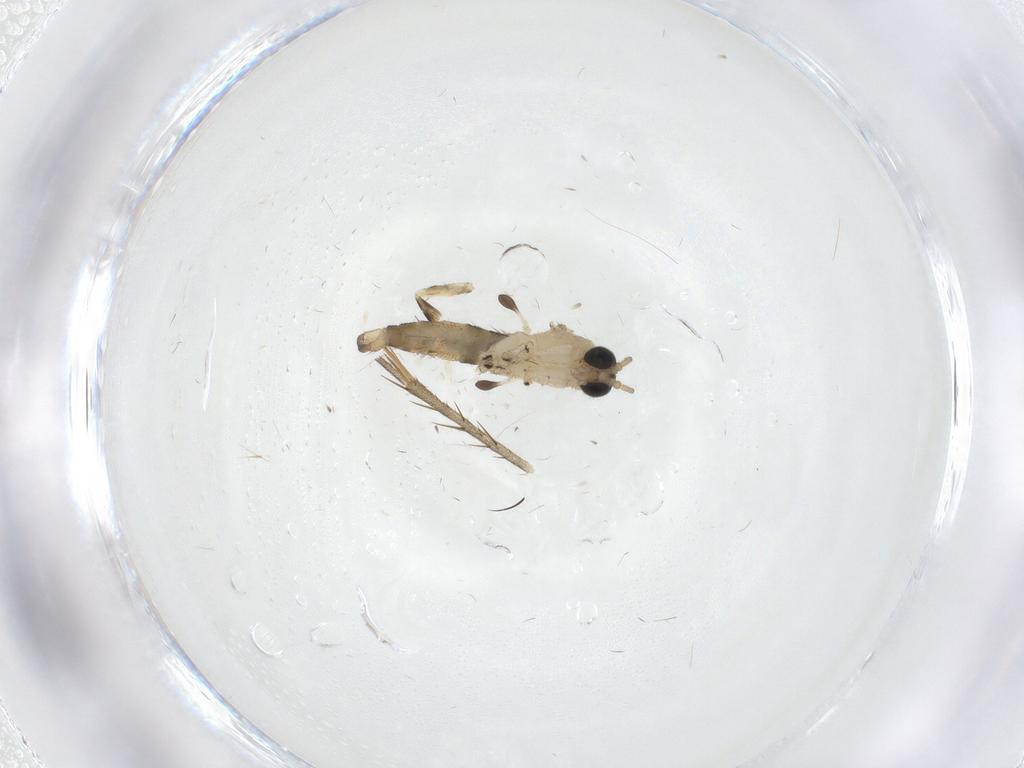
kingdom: Animalia
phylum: Arthropoda
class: Insecta
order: Diptera
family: Sciaridae
